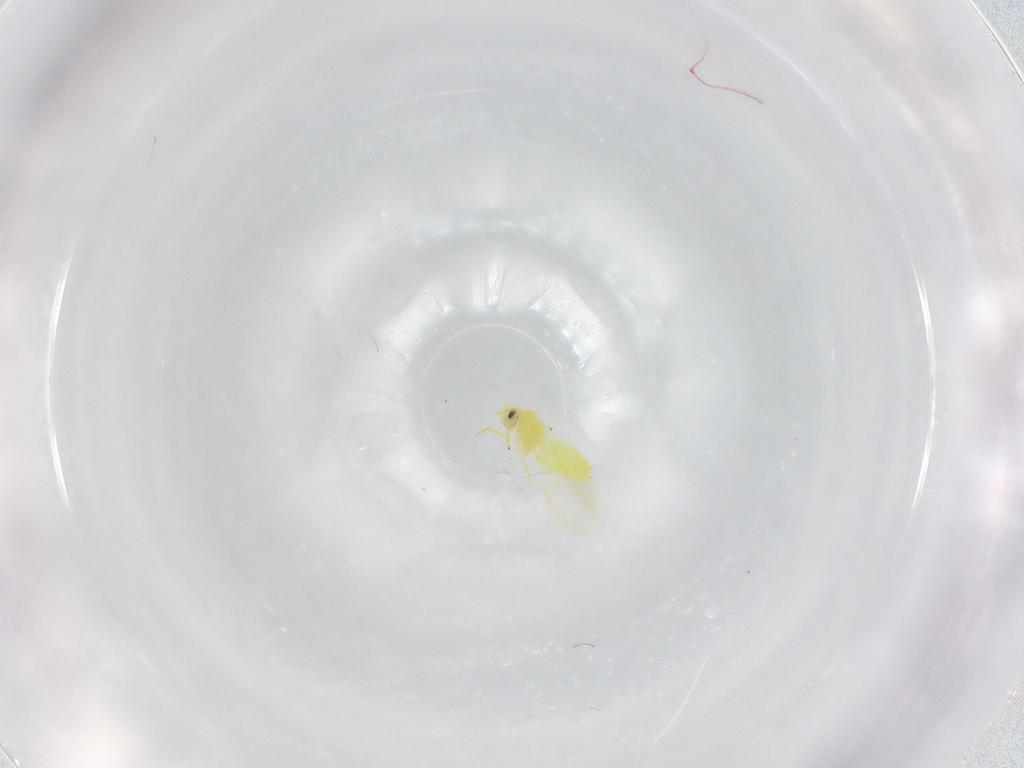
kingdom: Animalia
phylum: Arthropoda
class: Insecta
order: Hemiptera
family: Aleyrodidae
